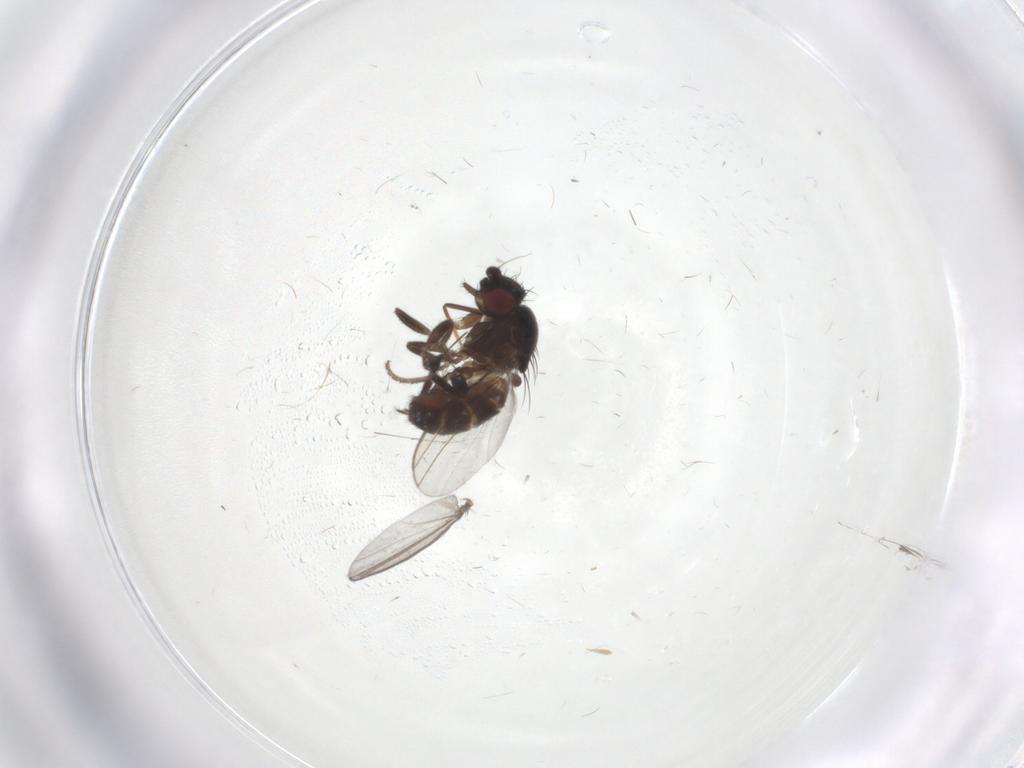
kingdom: Animalia
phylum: Arthropoda
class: Insecta
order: Diptera
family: Milichiidae
